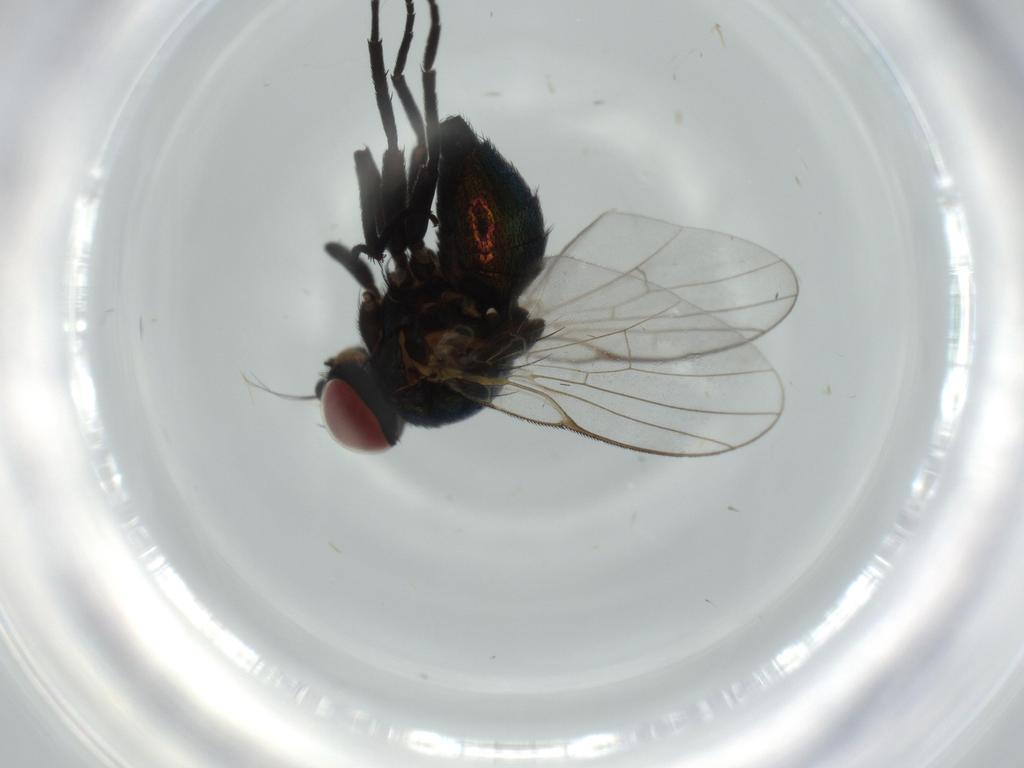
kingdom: Animalia
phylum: Arthropoda
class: Insecta
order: Diptera
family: Agromyzidae
